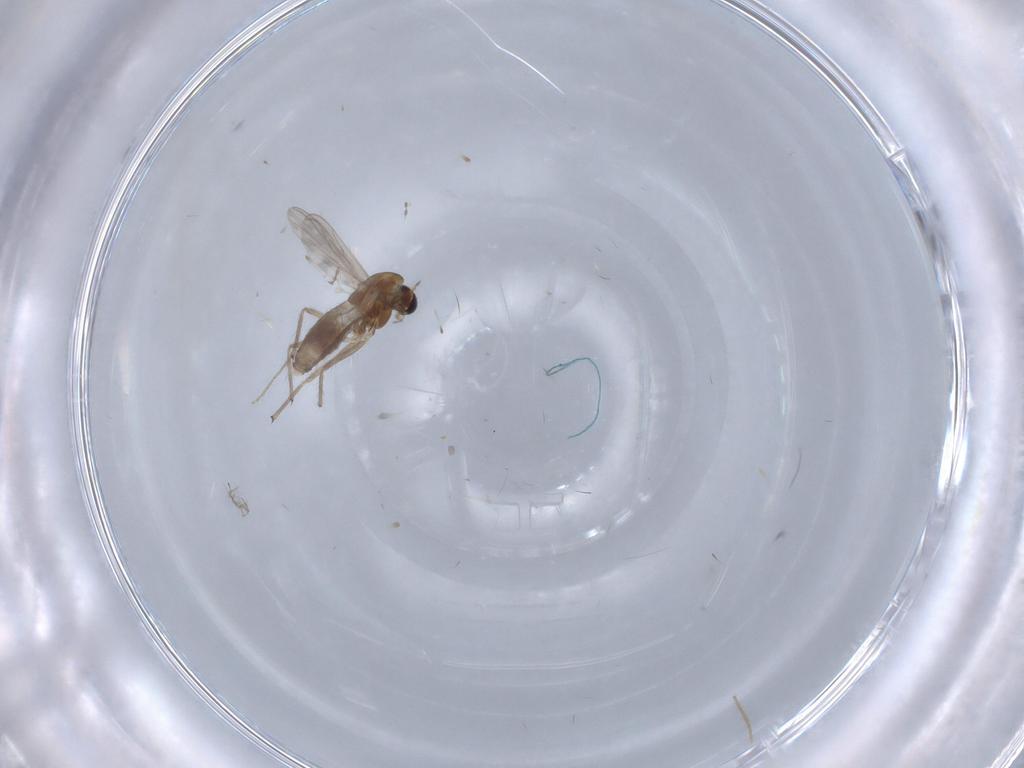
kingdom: Animalia
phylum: Arthropoda
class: Insecta
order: Diptera
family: Chironomidae
